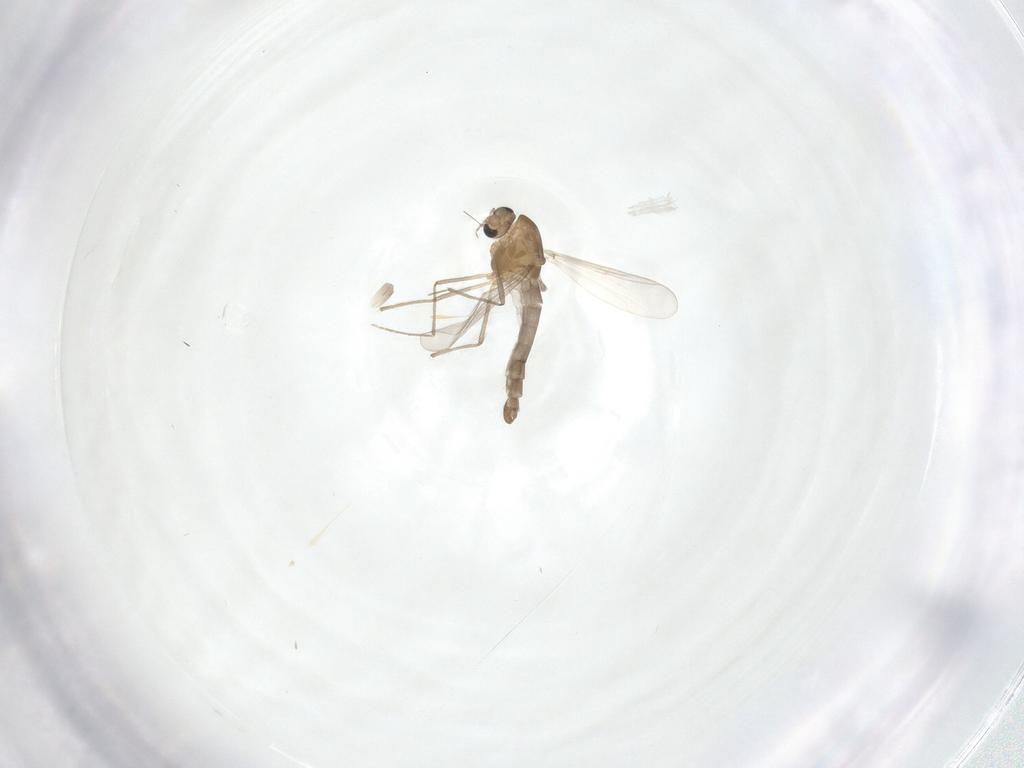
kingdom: Animalia
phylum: Arthropoda
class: Insecta
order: Diptera
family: Chironomidae
